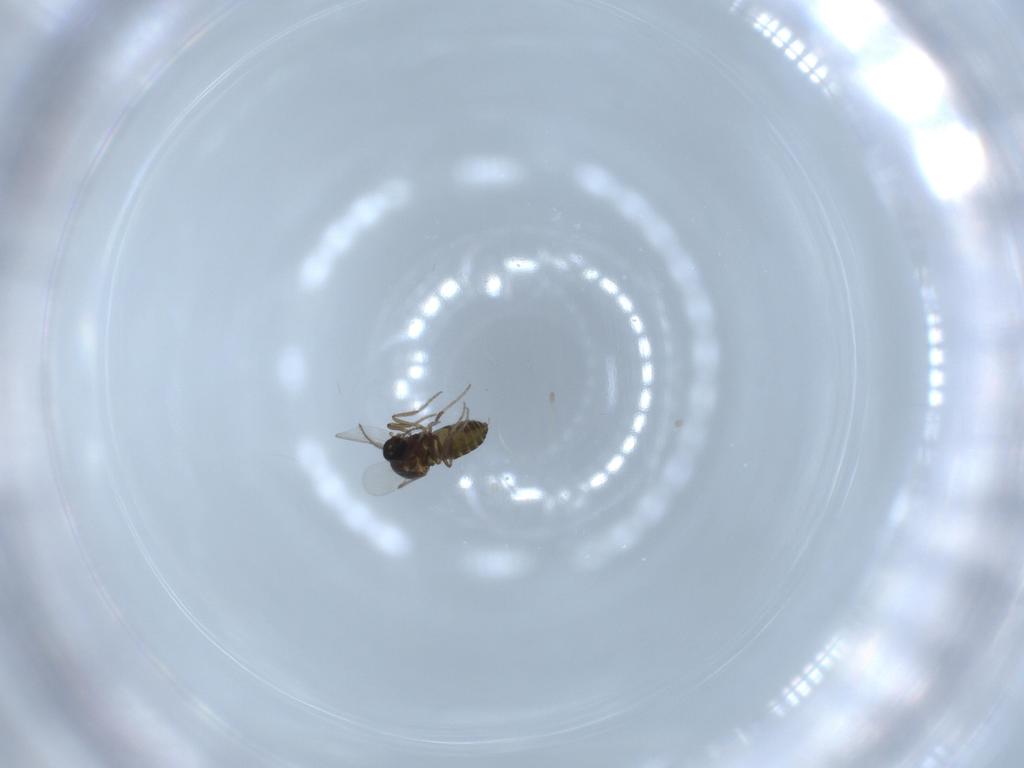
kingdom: Animalia
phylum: Arthropoda
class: Insecta
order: Diptera
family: Ceratopogonidae
